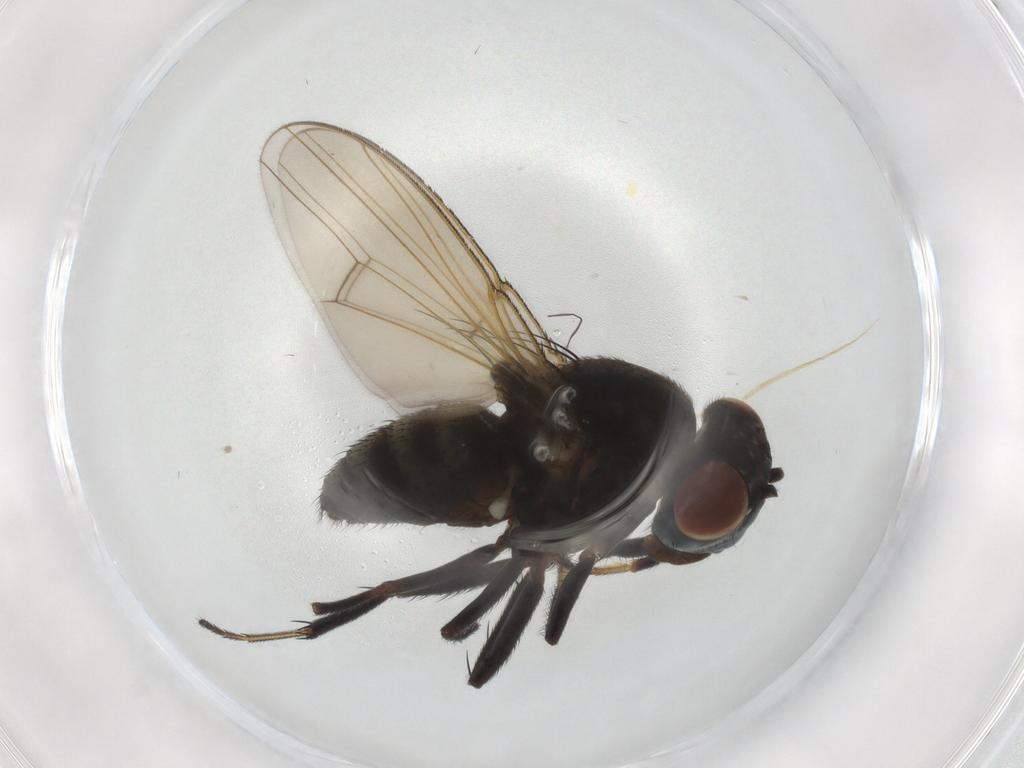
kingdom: Animalia
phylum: Arthropoda
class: Insecta
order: Diptera
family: Ephydridae
